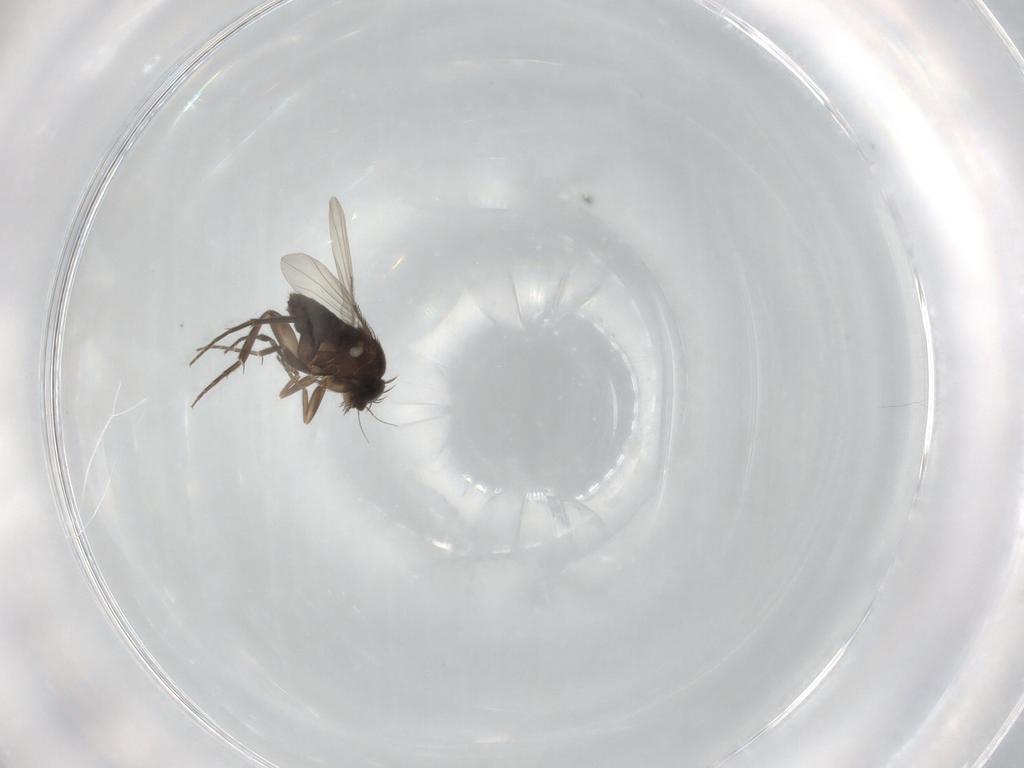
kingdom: Animalia
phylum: Arthropoda
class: Insecta
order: Diptera
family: Phoridae
